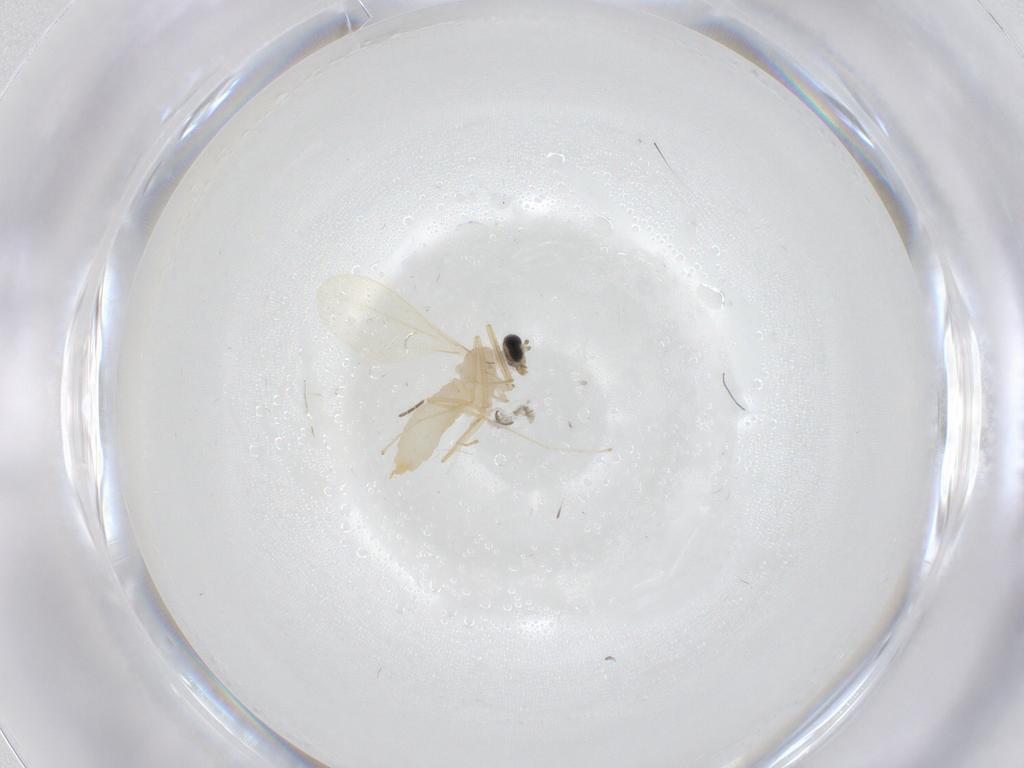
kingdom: Animalia
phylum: Arthropoda
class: Insecta
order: Diptera
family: Cecidomyiidae
